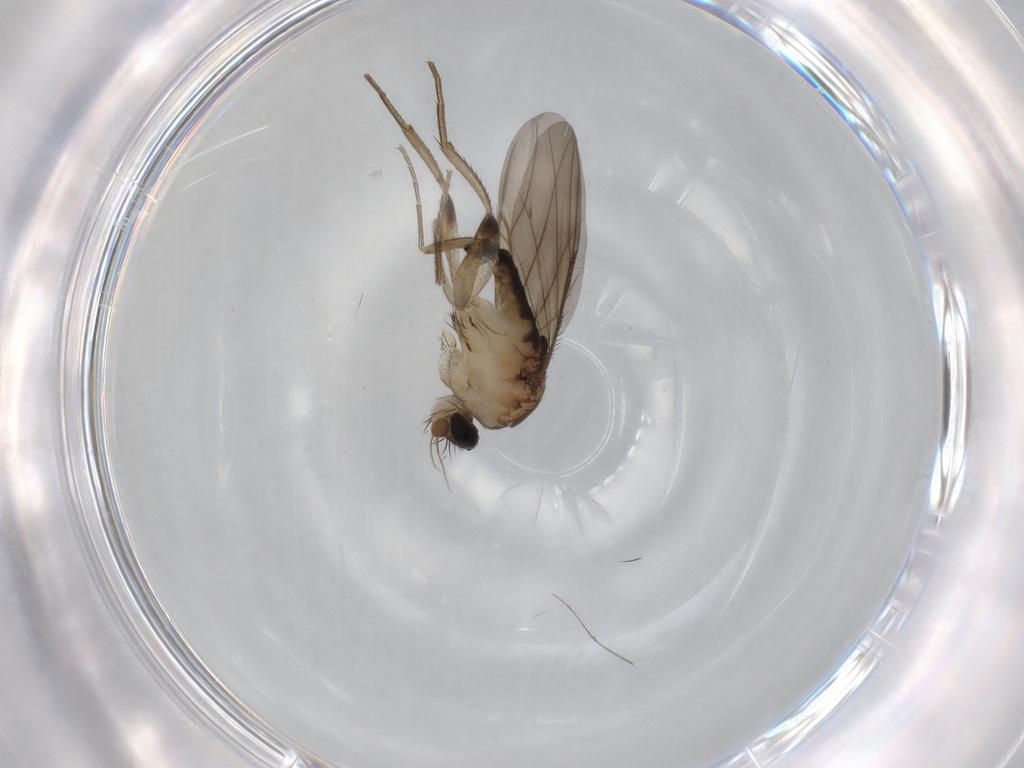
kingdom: Animalia
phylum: Arthropoda
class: Insecta
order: Diptera
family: Phoridae
